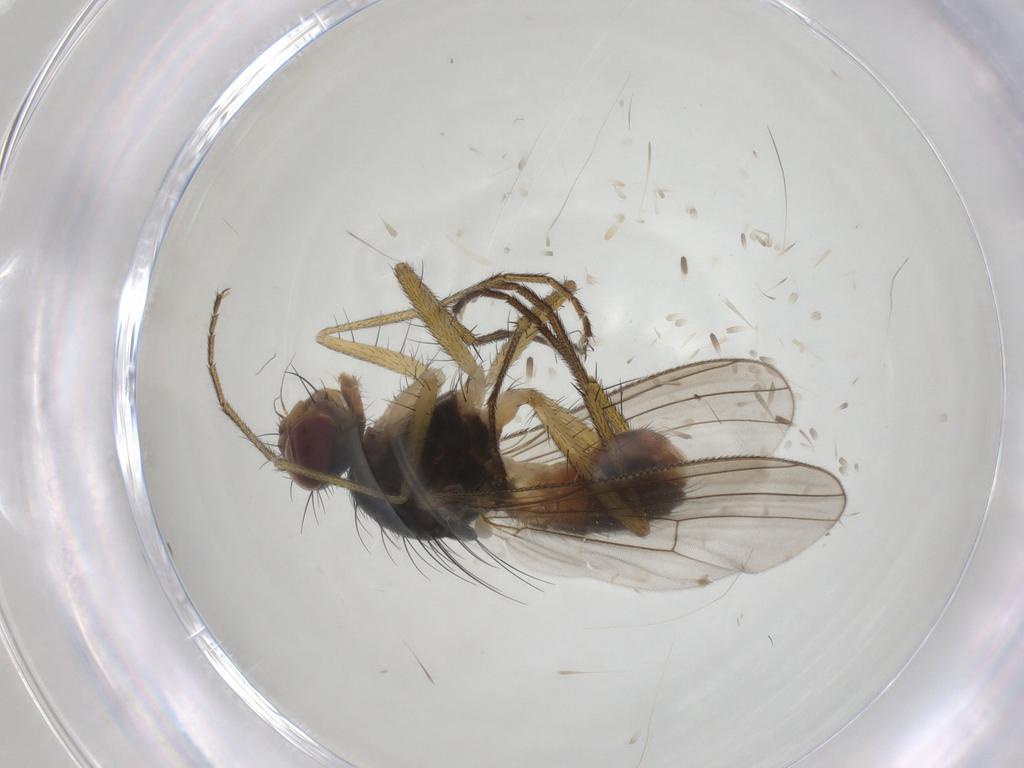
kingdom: Animalia
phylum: Arthropoda
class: Insecta
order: Diptera
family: Muscidae
